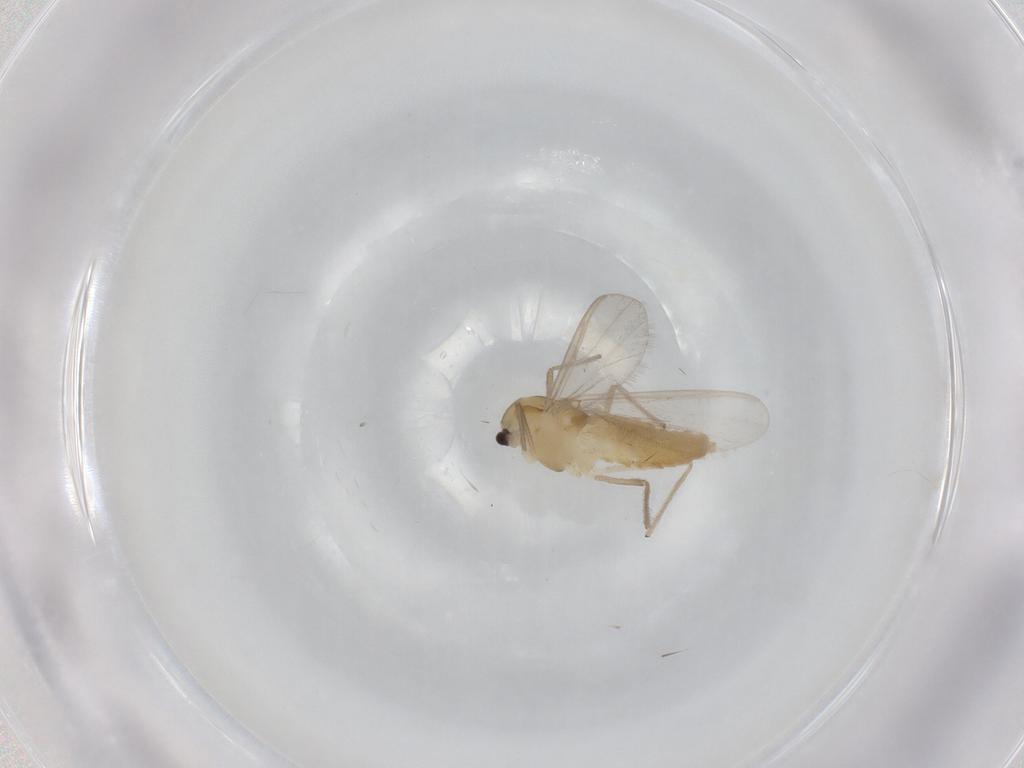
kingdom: Animalia
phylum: Arthropoda
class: Insecta
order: Diptera
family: Chironomidae
